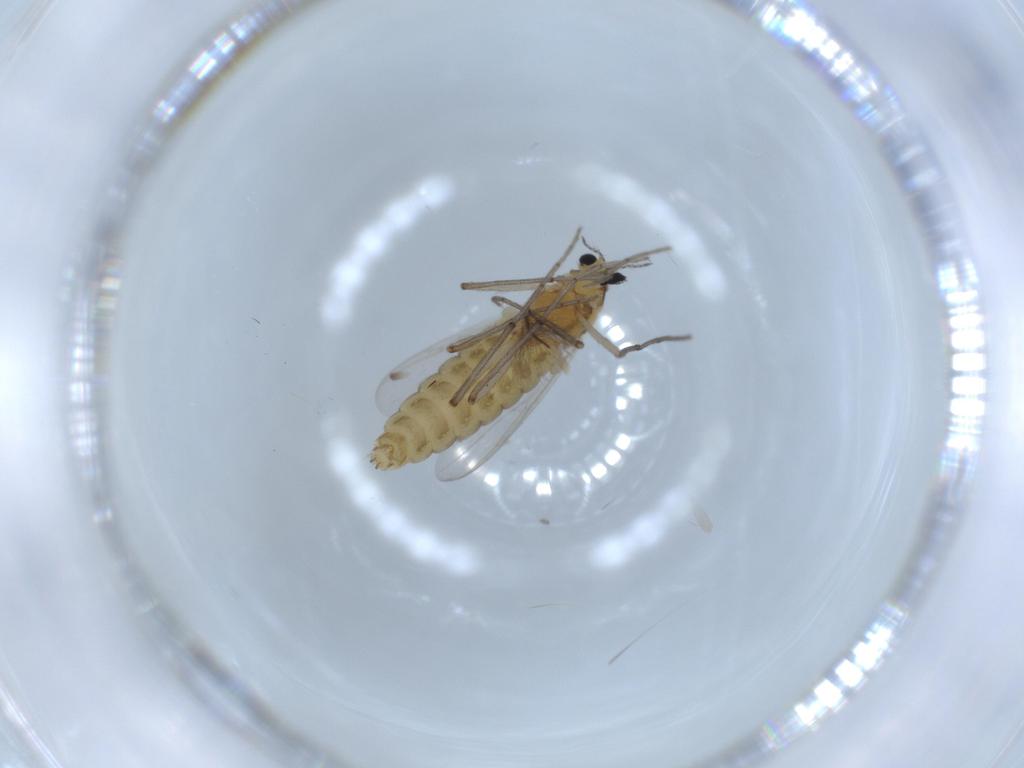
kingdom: Animalia
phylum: Arthropoda
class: Insecta
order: Diptera
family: Chironomidae
